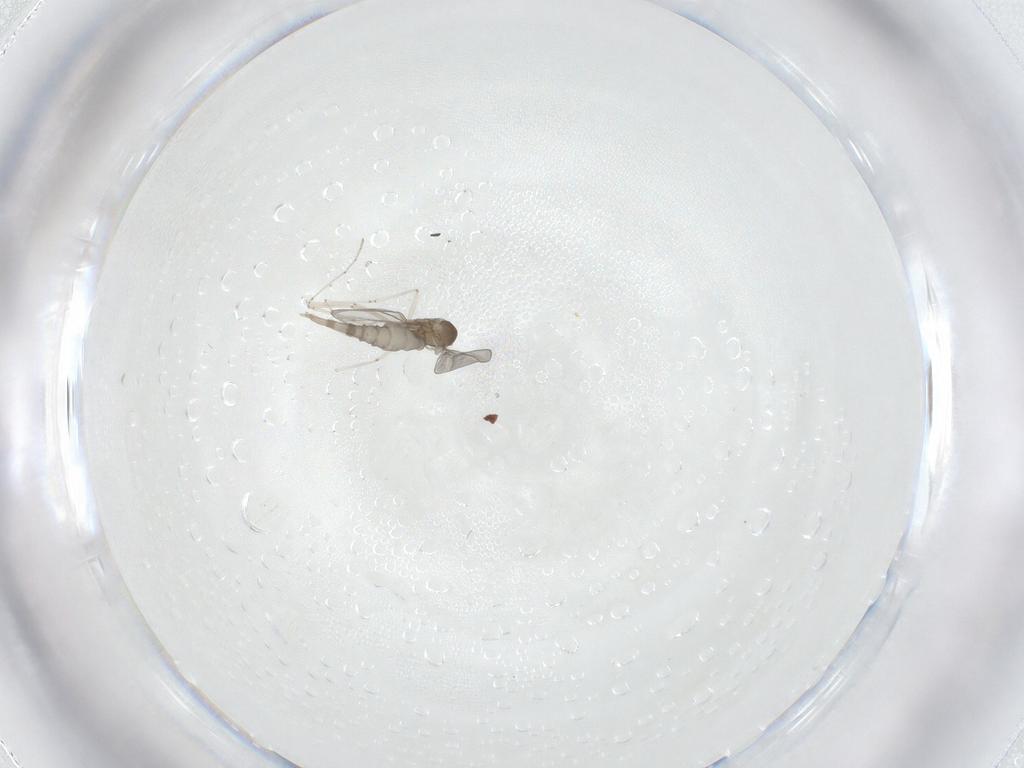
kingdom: Animalia
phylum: Arthropoda
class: Insecta
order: Diptera
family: Cecidomyiidae
